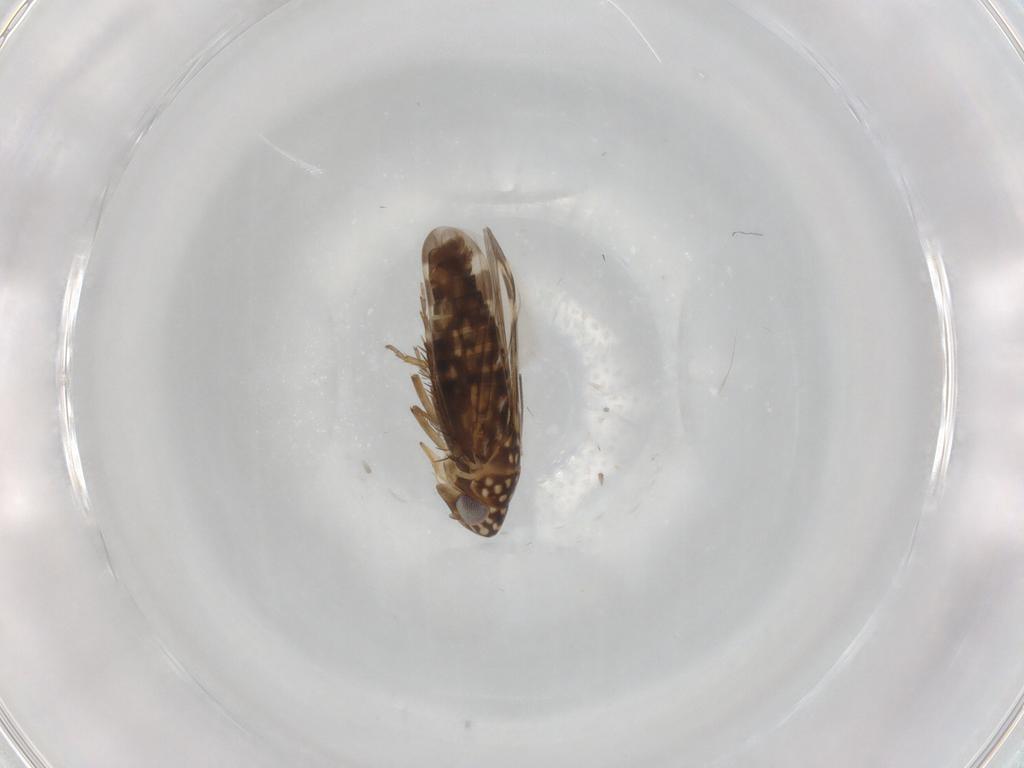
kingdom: Animalia
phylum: Arthropoda
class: Insecta
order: Hemiptera
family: Cicadellidae
